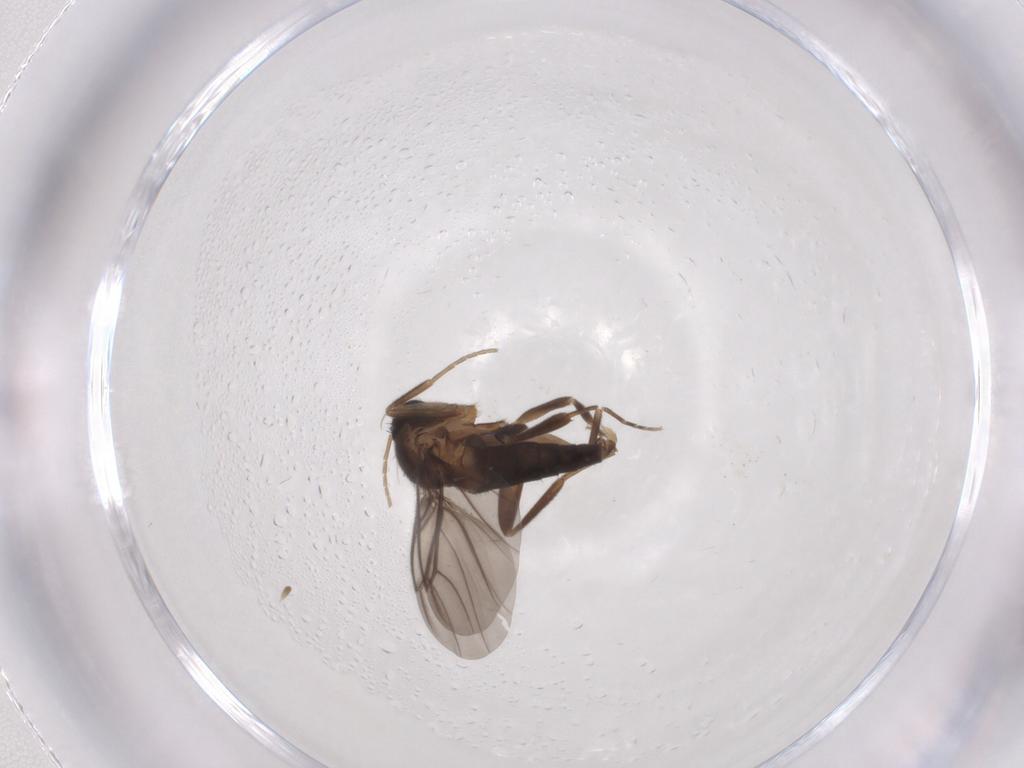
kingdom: Animalia
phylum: Arthropoda
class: Insecta
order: Diptera
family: Phoridae
